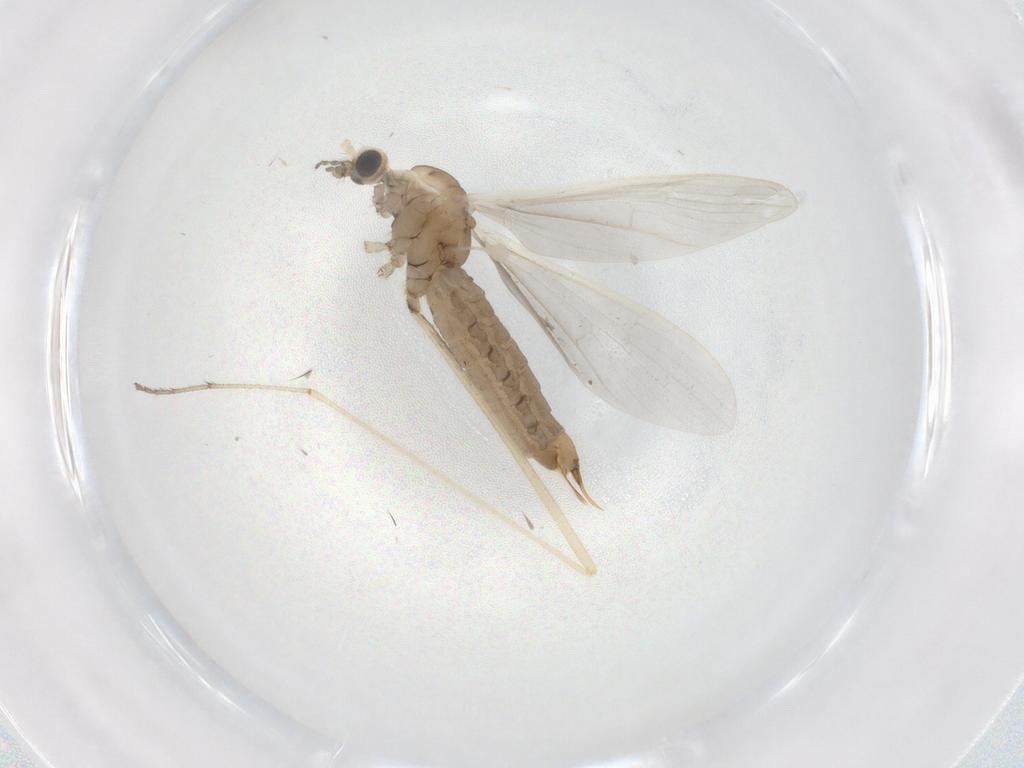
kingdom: Animalia
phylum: Arthropoda
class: Insecta
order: Diptera
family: Limoniidae
